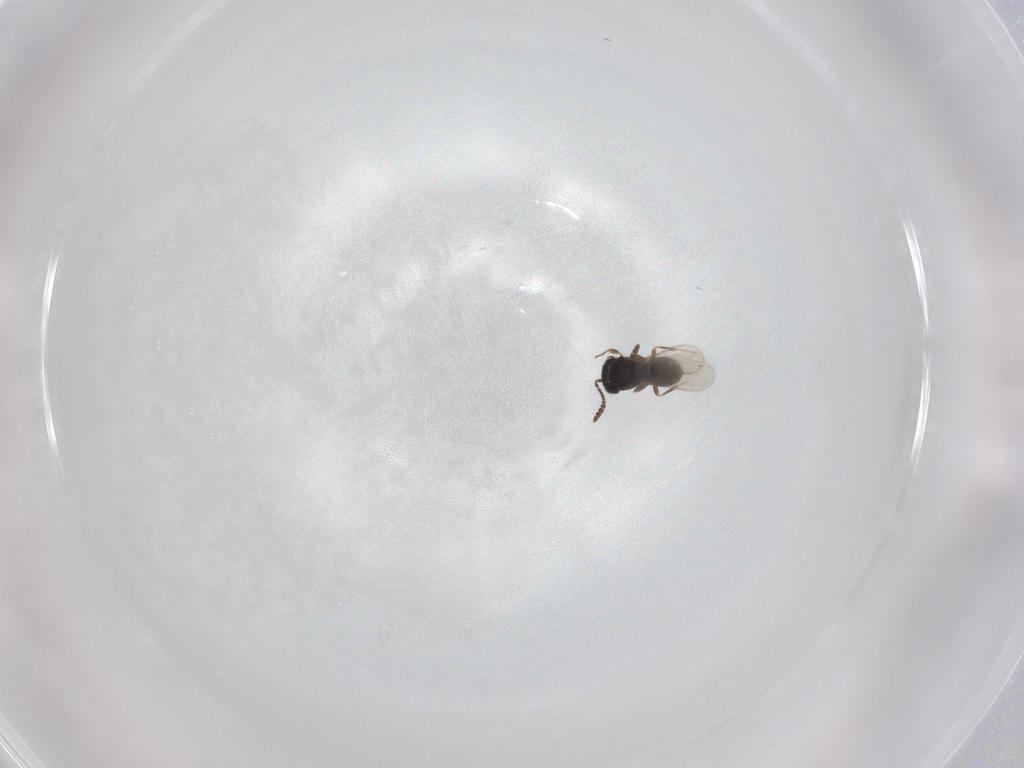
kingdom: Animalia
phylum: Arthropoda
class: Insecta
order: Hymenoptera
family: Scelionidae
